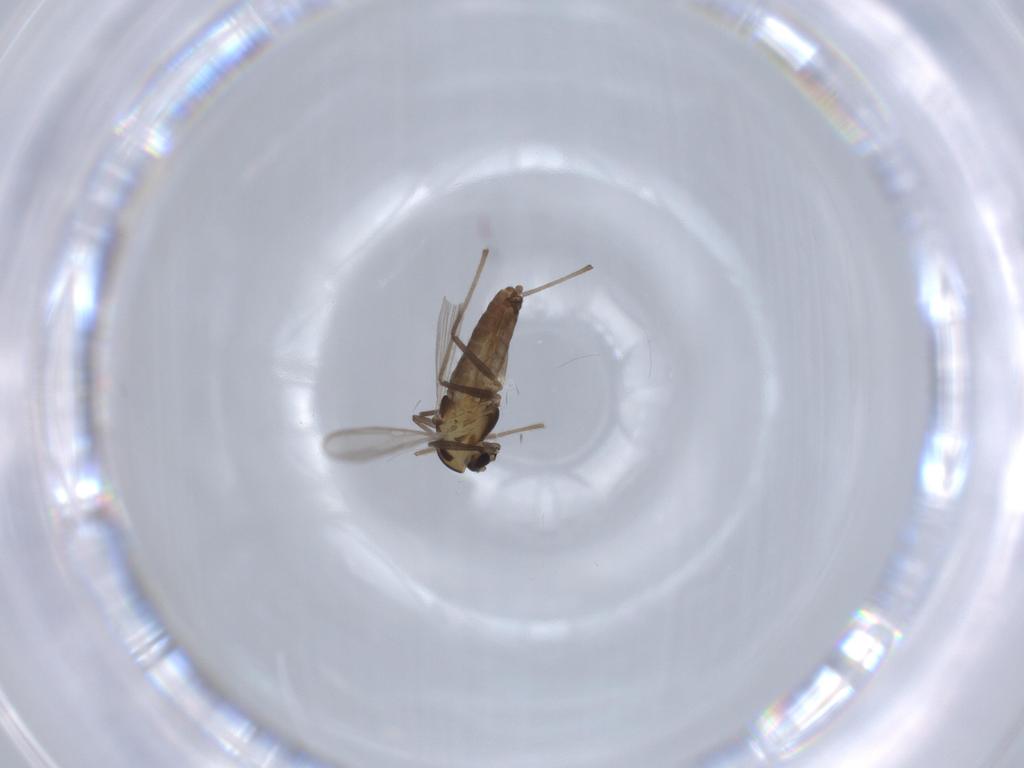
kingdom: Animalia
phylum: Arthropoda
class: Insecta
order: Diptera
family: Chironomidae
